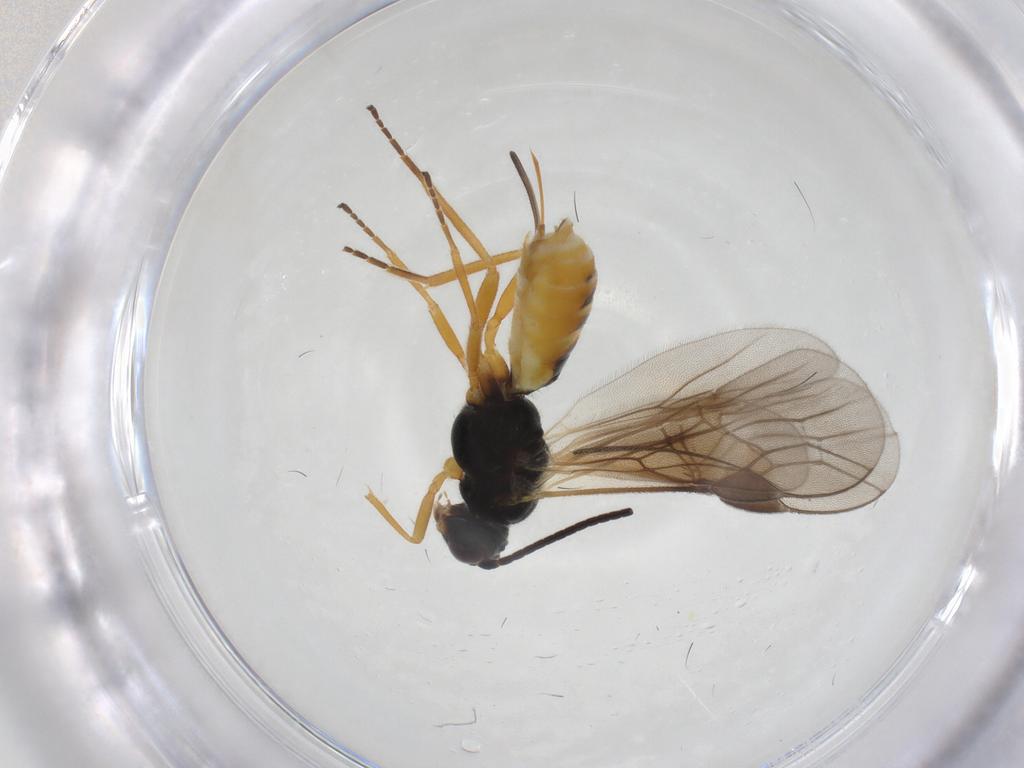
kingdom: Animalia
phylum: Arthropoda
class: Insecta
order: Hymenoptera
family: Braconidae
